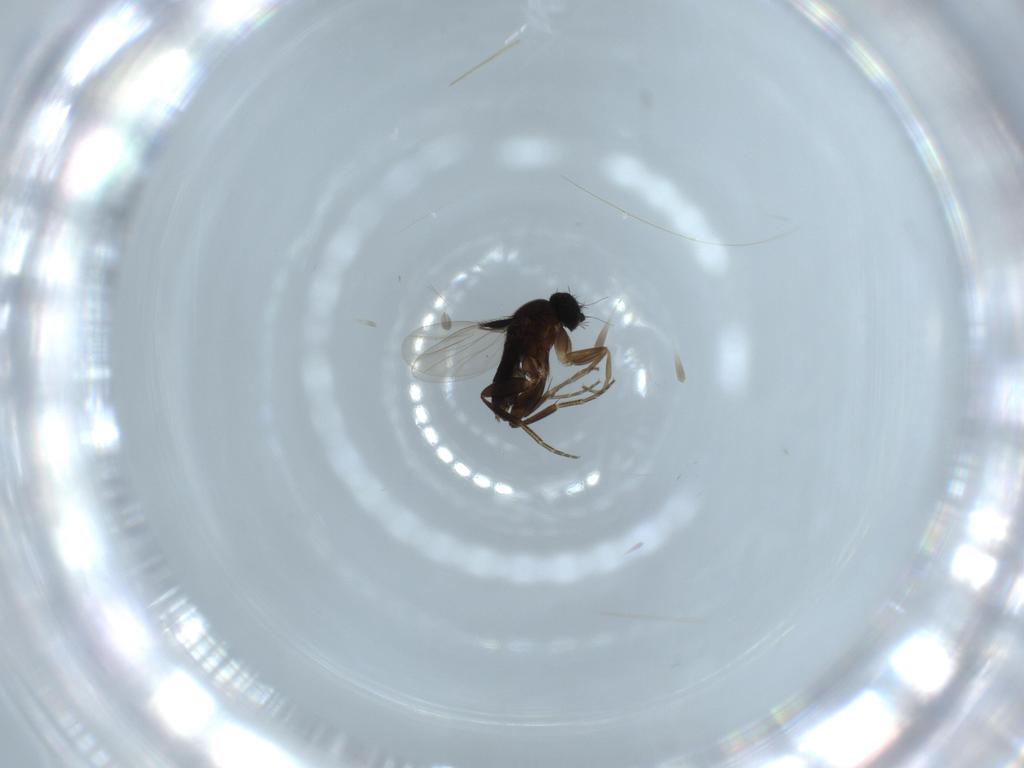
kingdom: Animalia
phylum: Arthropoda
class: Insecta
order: Diptera
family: Phoridae
